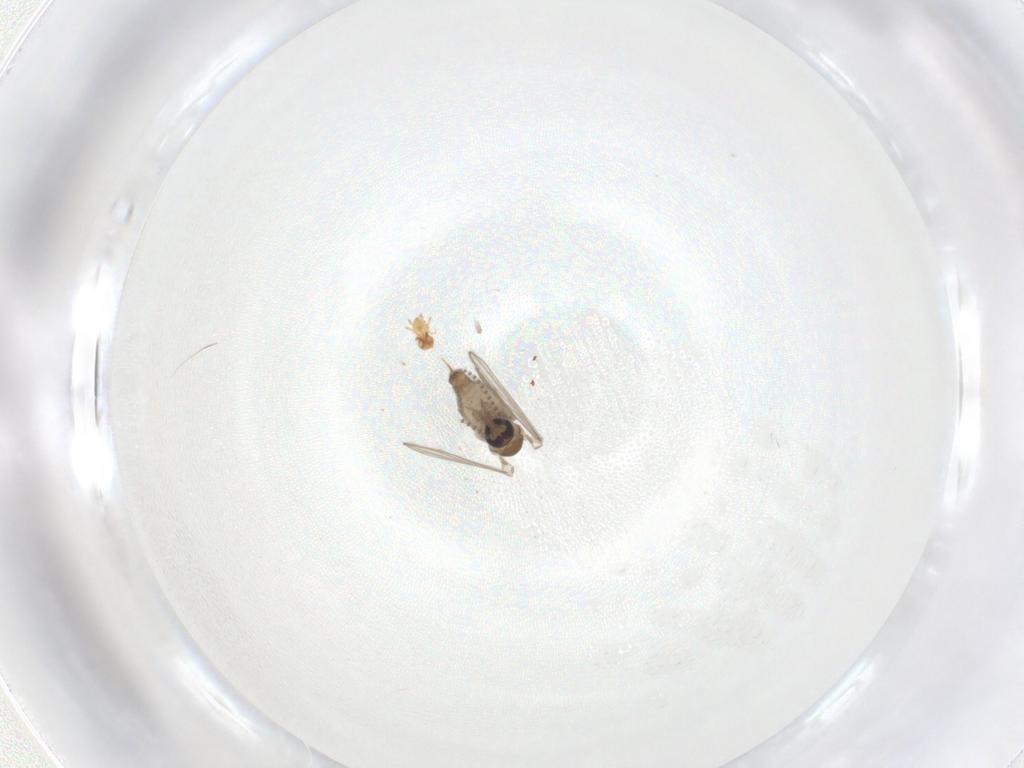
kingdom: Animalia
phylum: Arthropoda
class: Insecta
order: Diptera
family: Psychodidae
